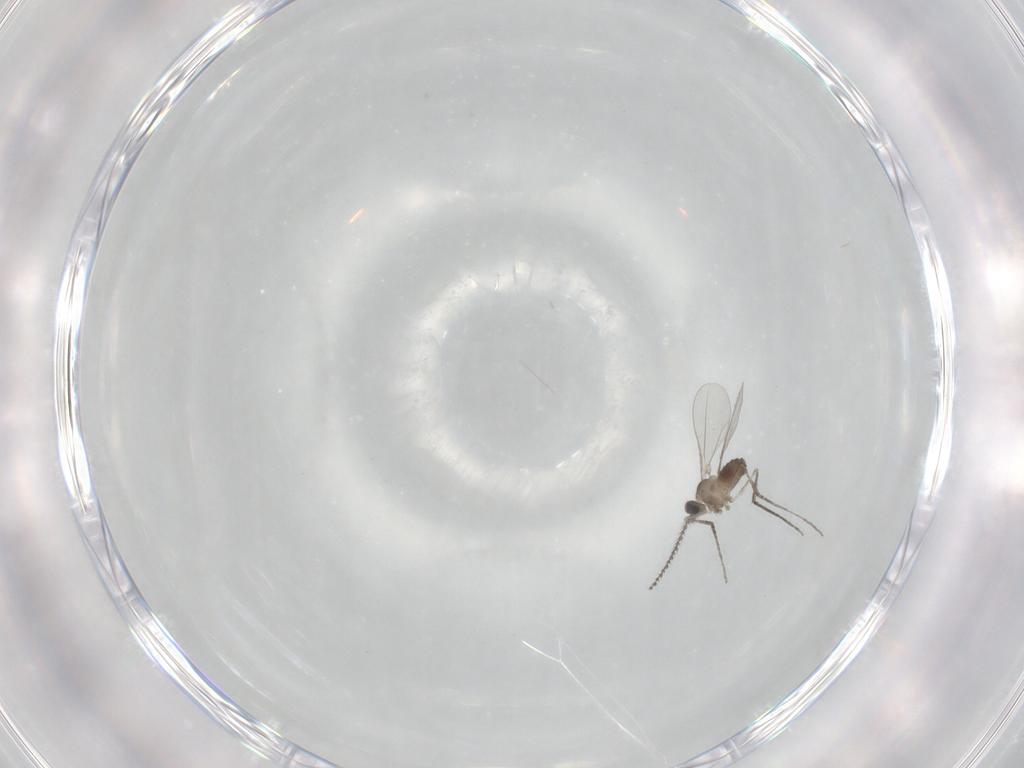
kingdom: Animalia
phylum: Arthropoda
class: Insecta
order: Diptera
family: Cecidomyiidae
